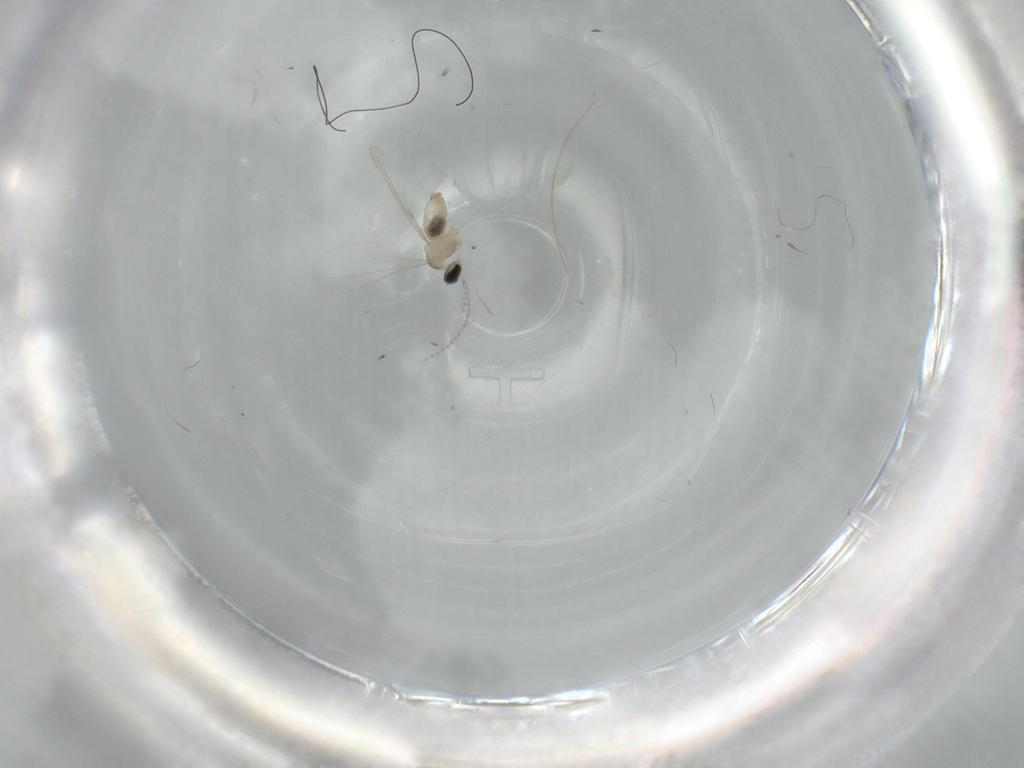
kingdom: Animalia
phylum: Arthropoda
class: Insecta
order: Diptera
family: Cecidomyiidae
